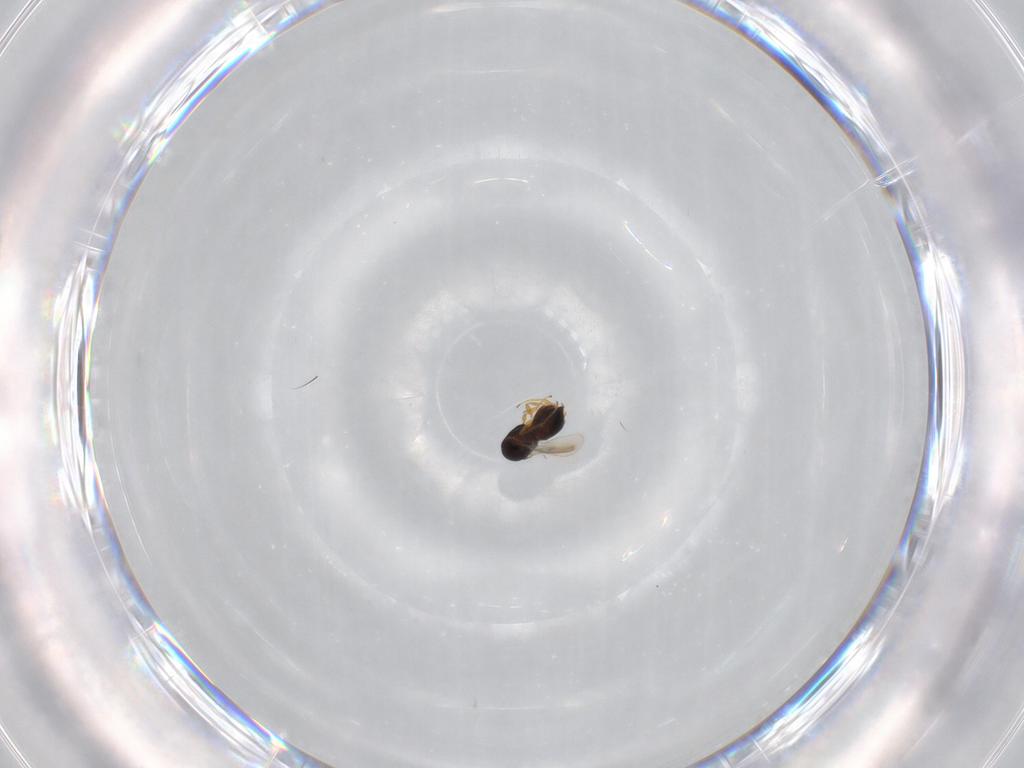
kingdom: Animalia
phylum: Arthropoda
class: Insecta
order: Hymenoptera
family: Scelionidae
